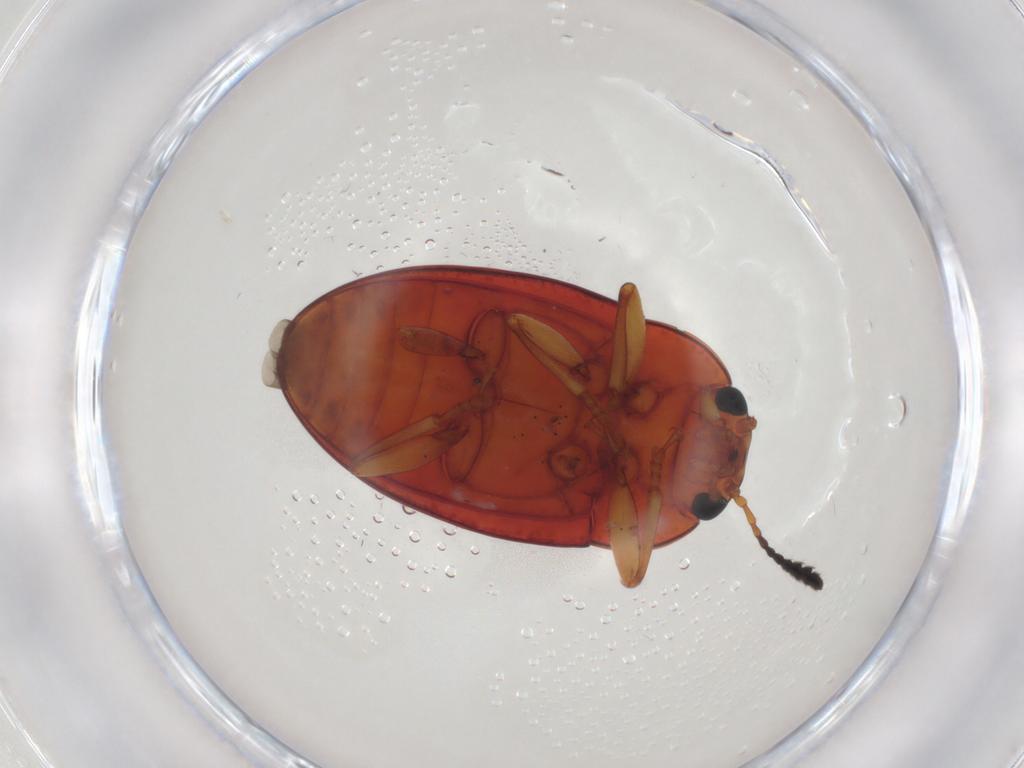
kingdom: Animalia
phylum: Arthropoda
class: Insecta
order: Coleoptera
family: Erotylidae
